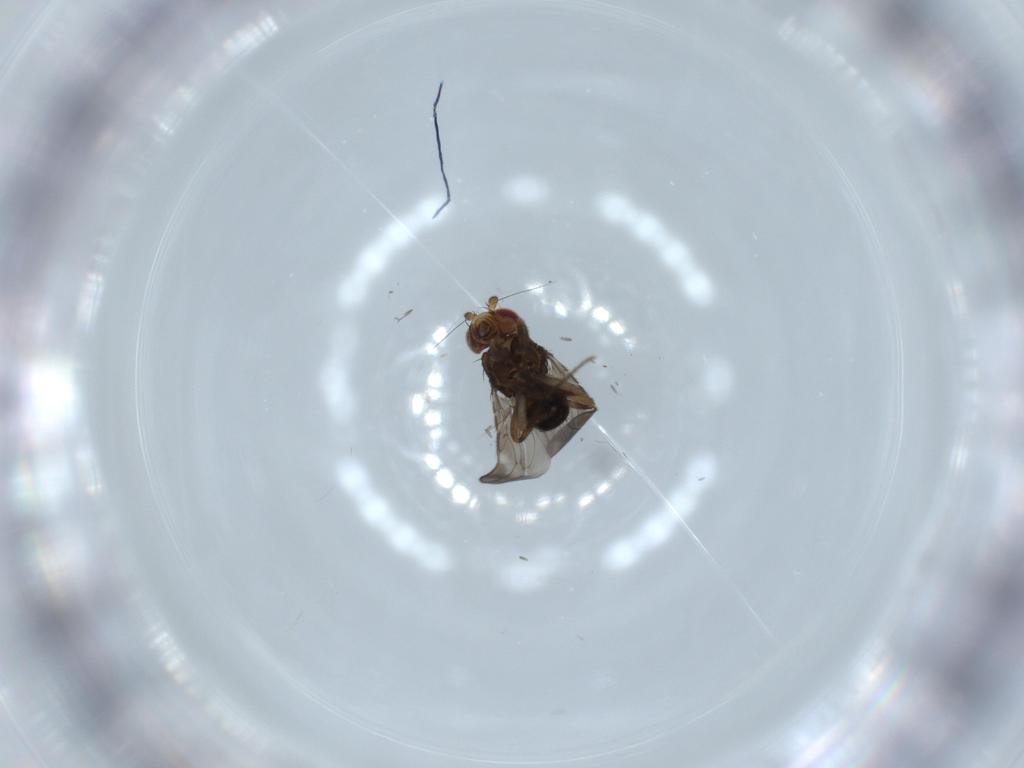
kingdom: Animalia
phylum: Arthropoda
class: Insecta
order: Diptera
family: Sphaeroceridae
